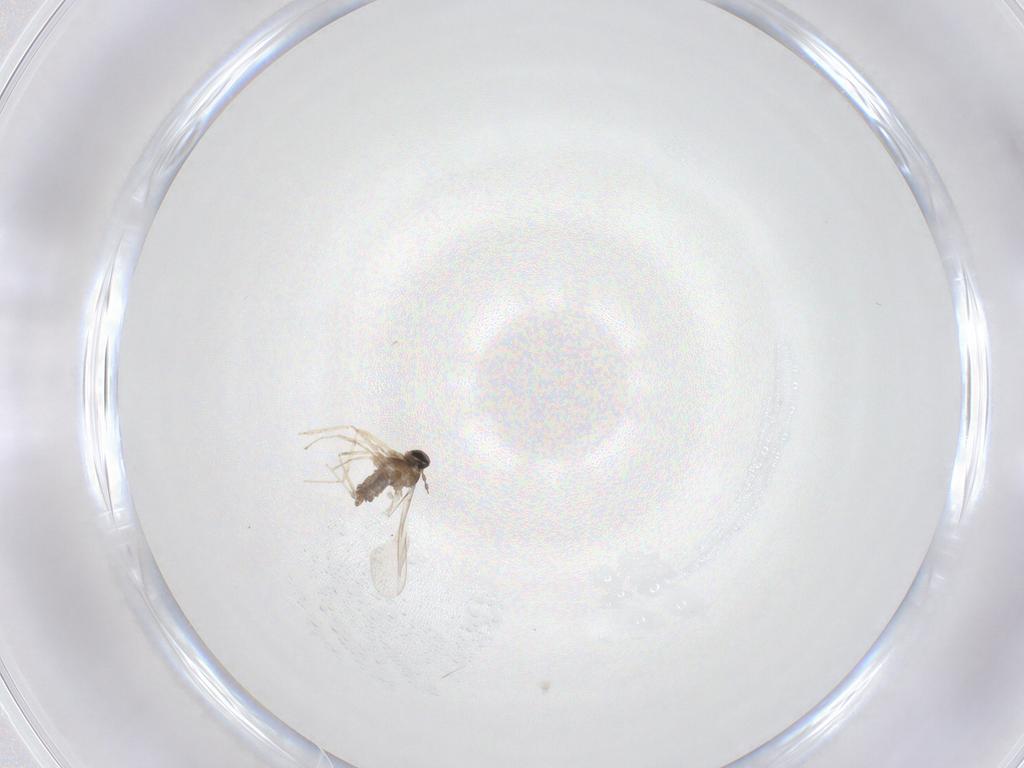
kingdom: Animalia
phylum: Arthropoda
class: Insecta
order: Diptera
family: Cecidomyiidae
